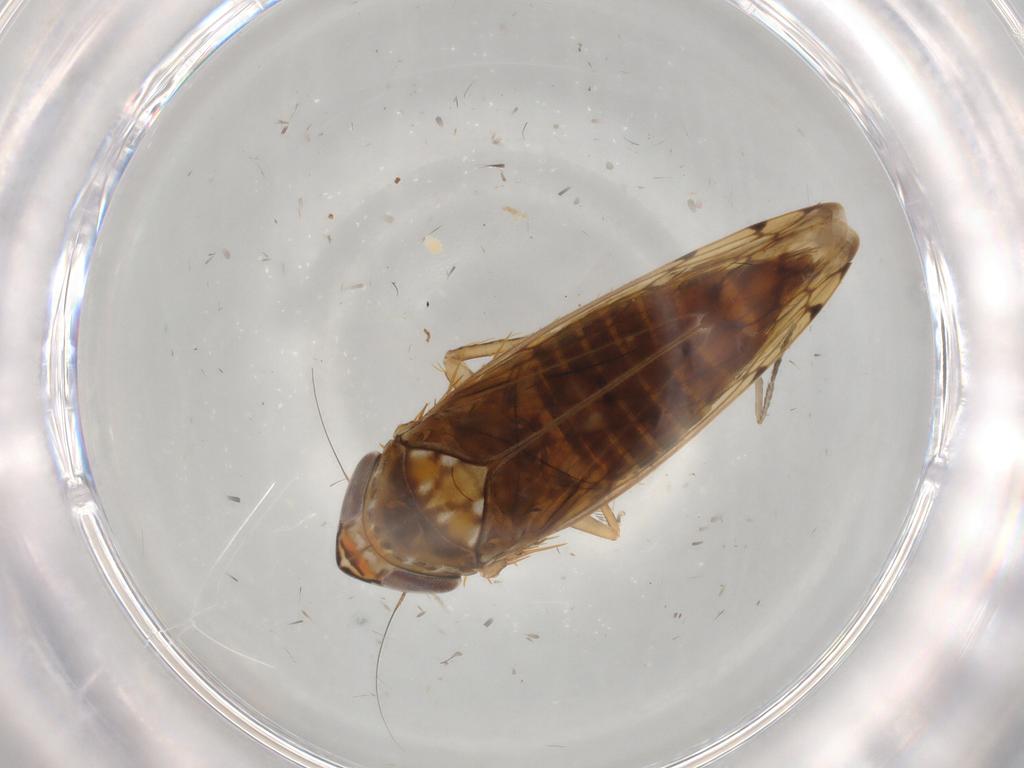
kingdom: Animalia
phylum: Arthropoda
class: Insecta
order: Hemiptera
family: Cicadellidae
